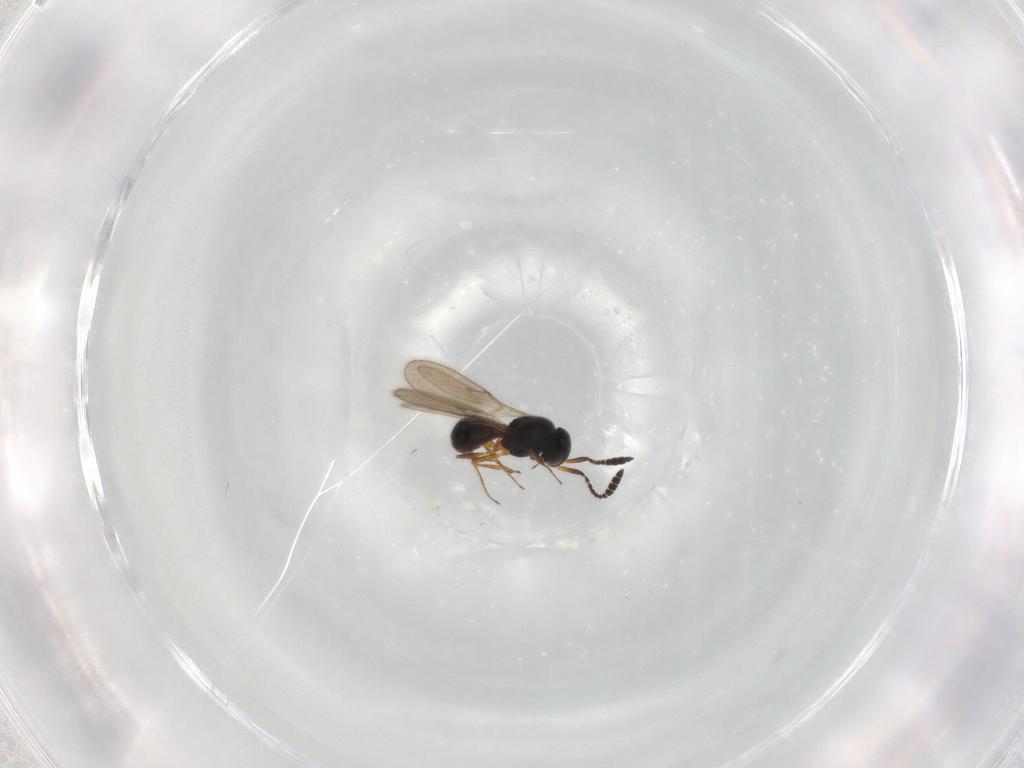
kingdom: Animalia
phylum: Arthropoda
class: Insecta
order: Hymenoptera
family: Scelionidae
